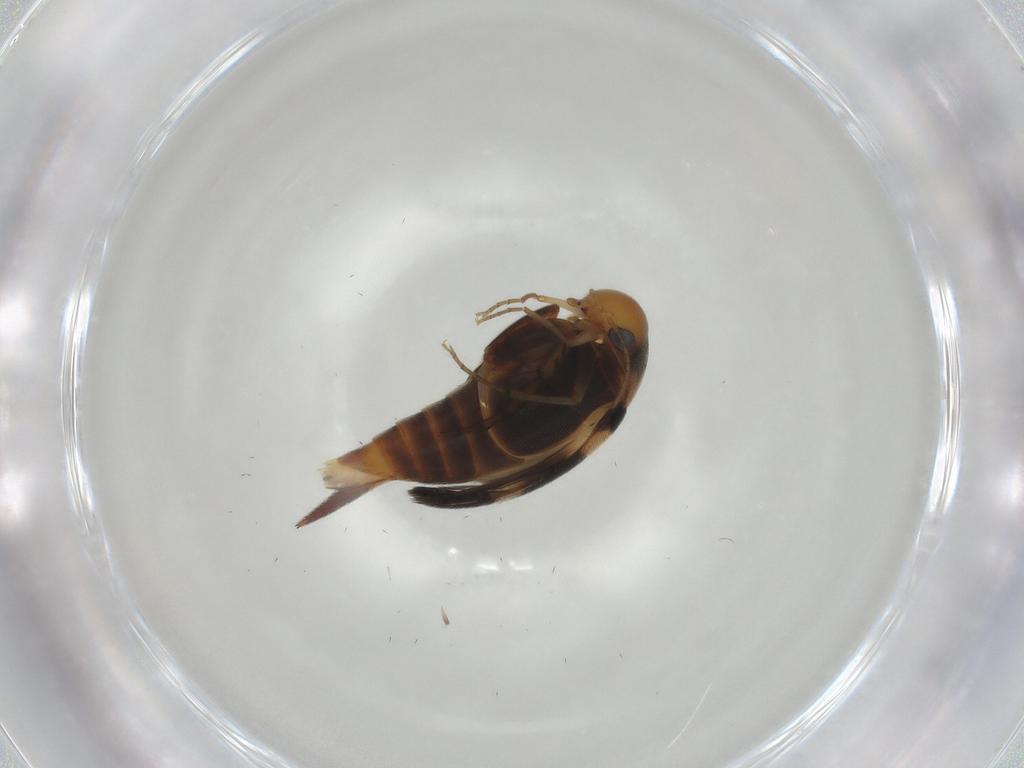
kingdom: Animalia
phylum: Arthropoda
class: Insecta
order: Coleoptera
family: Mordellidae
